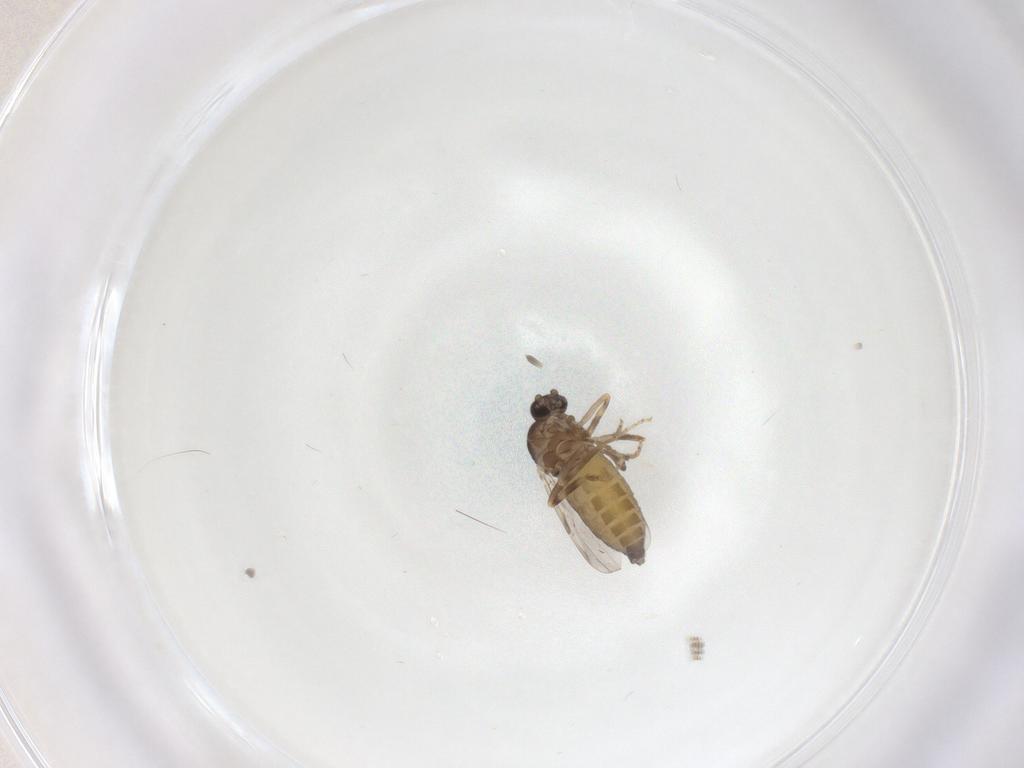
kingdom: Animalia
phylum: Arthropoda
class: Insecta
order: Diptera
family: Ceratopogonidae
